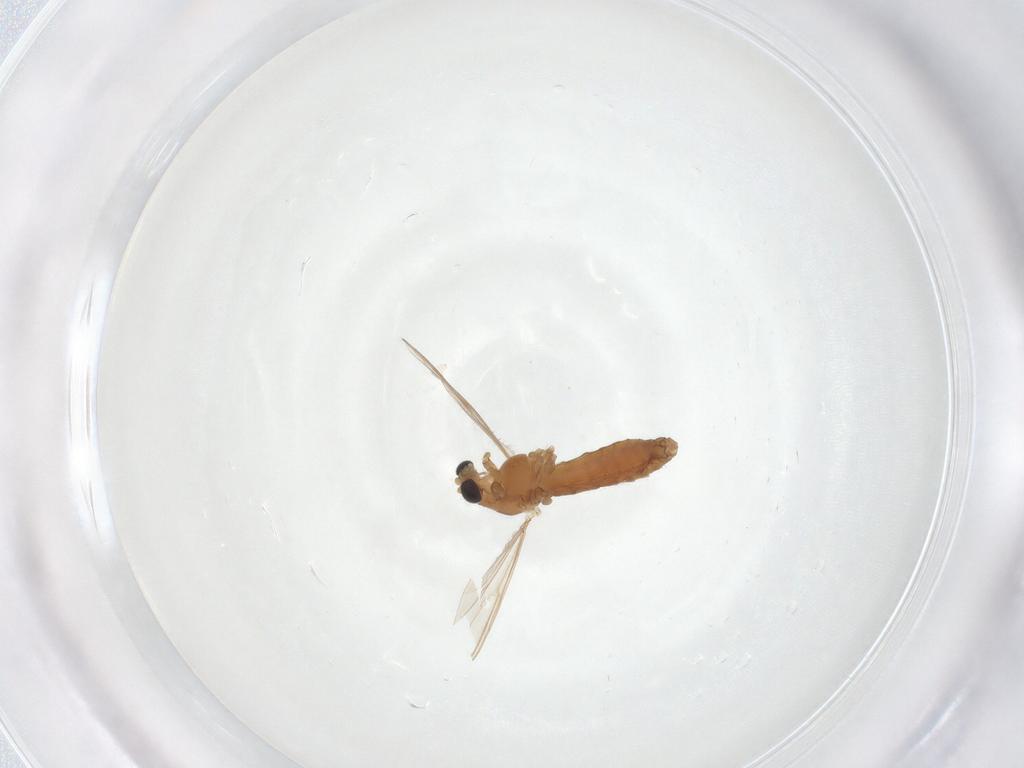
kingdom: Animalia
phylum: Arthropoda
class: Insecta
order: Diptera
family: Chironomidae
